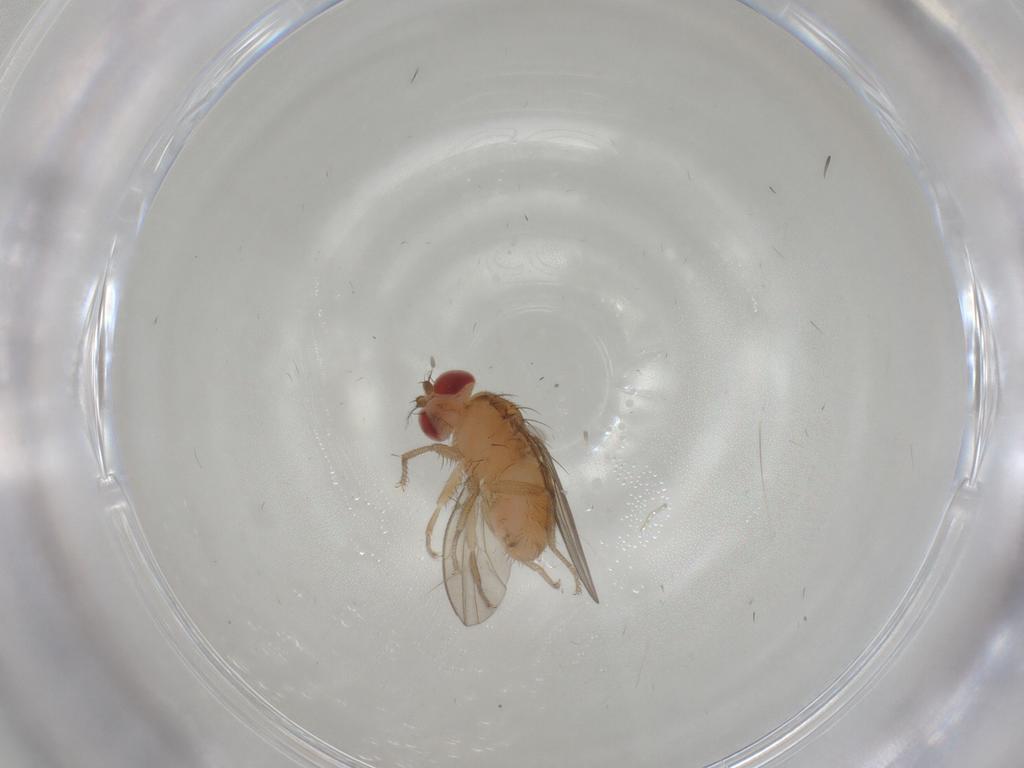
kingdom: Animalia
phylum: Arthropoda
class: Insecta
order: Diptera
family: Drosophilidae
